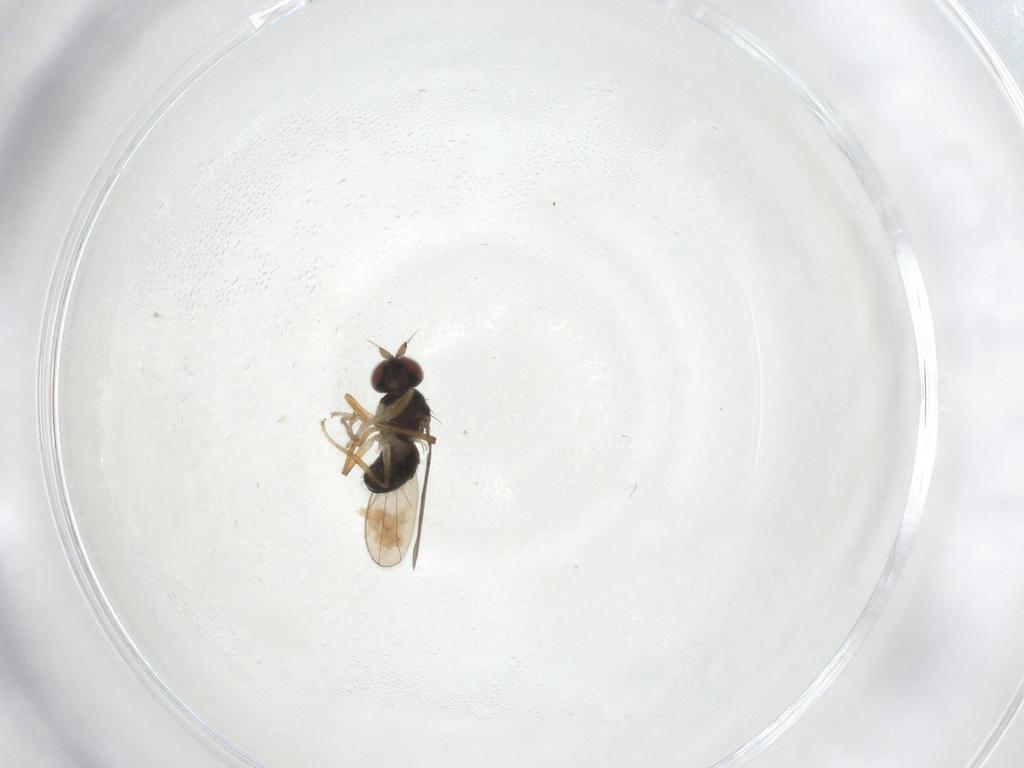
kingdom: Animalia
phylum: Arthropoda
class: Insecta
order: Diptera
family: Ephydridae
